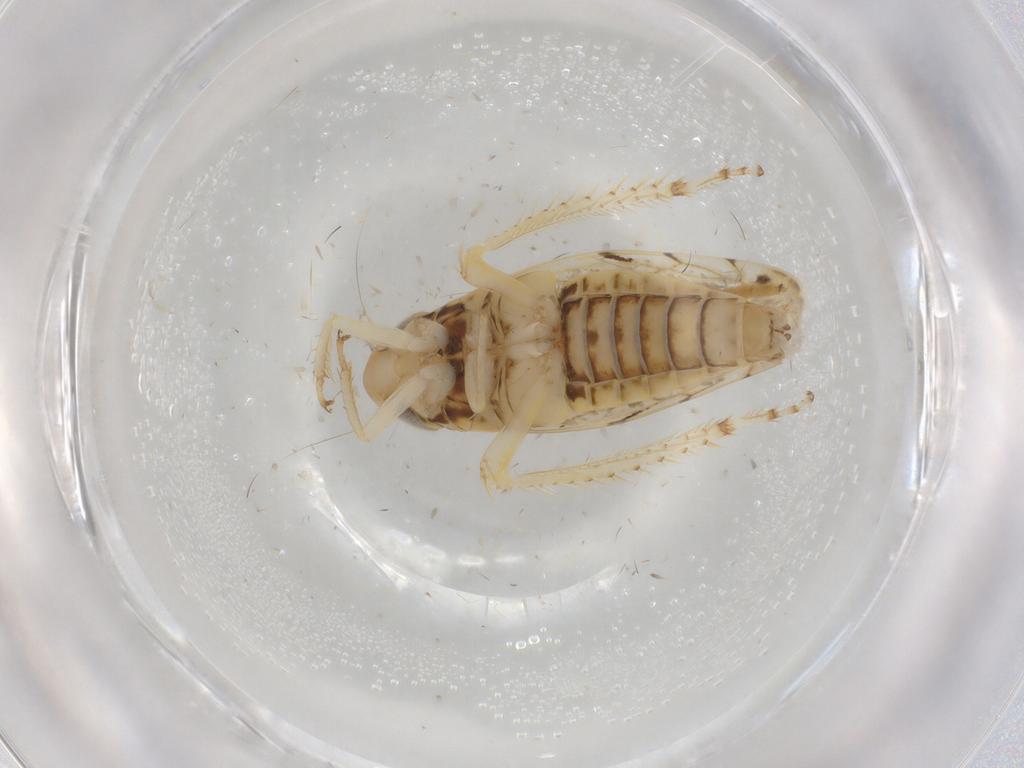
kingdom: Animalia
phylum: Arthropoda
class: Insecta
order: Hemiptera
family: Cicadellidae
